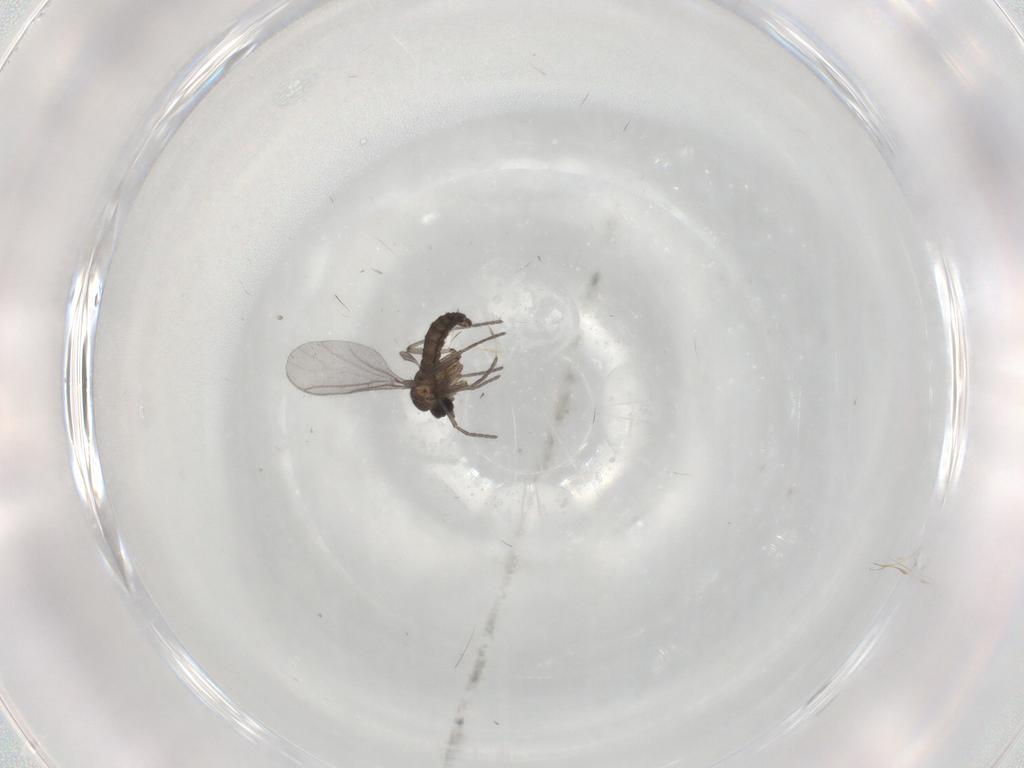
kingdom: Animalia
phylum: Arthropoda
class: Insecta
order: Diptera
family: Sciaridae
